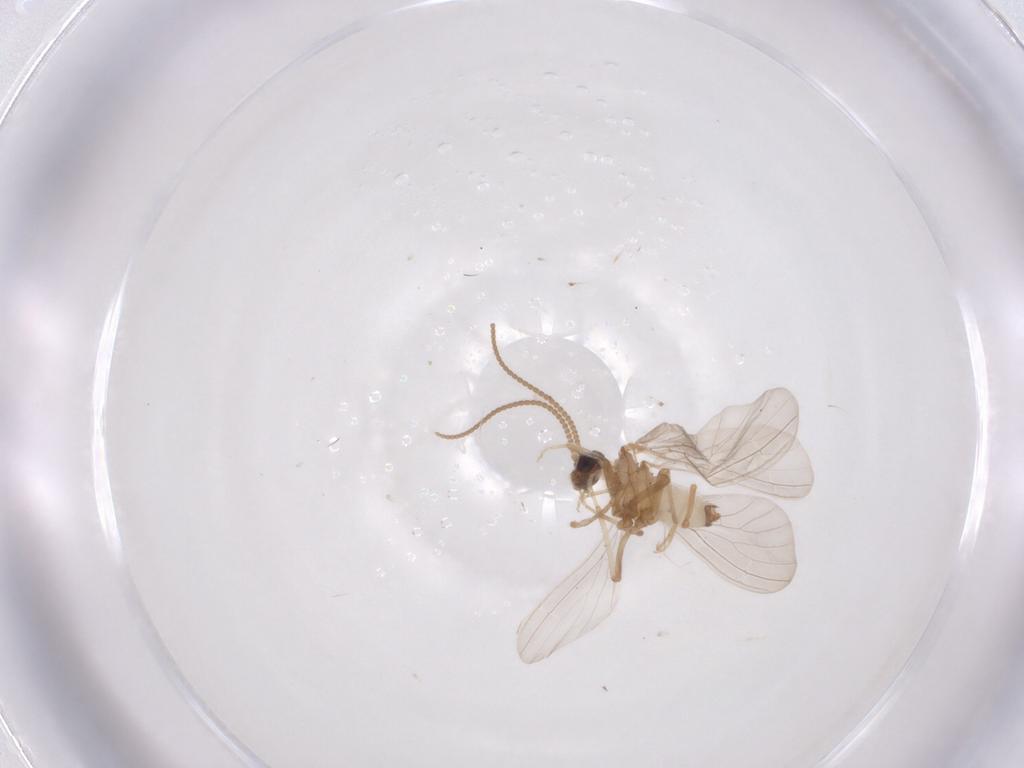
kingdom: Animalia
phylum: Arthropoda
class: Insecta
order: Neuroptera
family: Coniopterygidae
